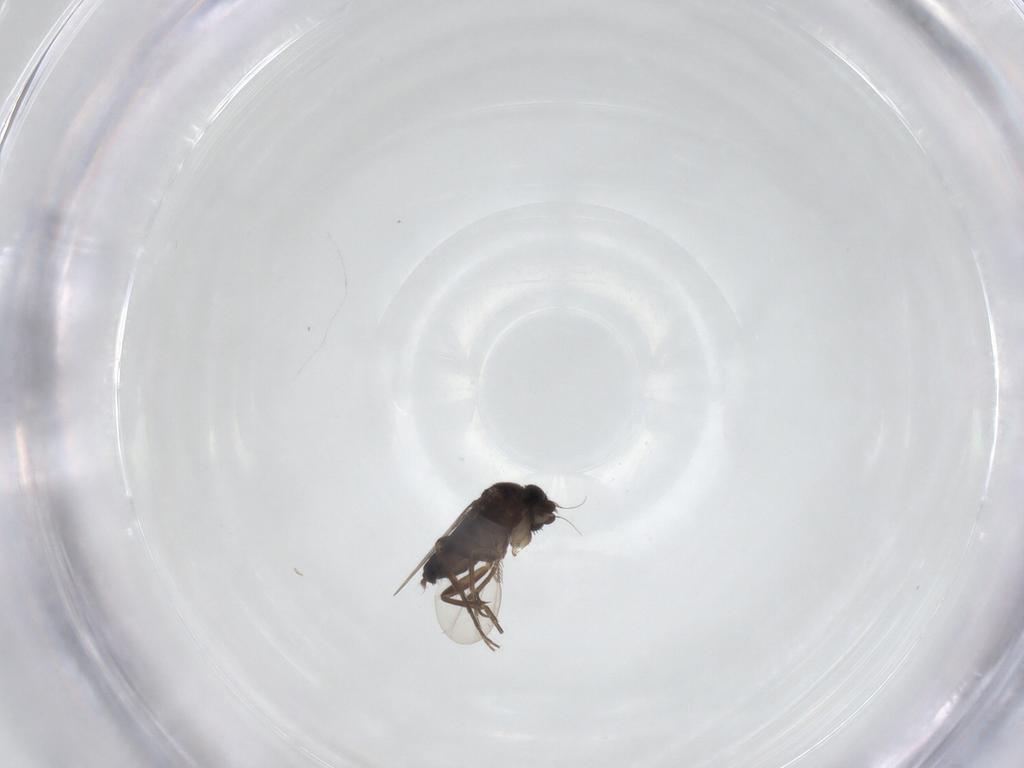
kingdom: Animalia
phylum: Arthropoda
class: Insecta
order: Diptera
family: Phoridae
